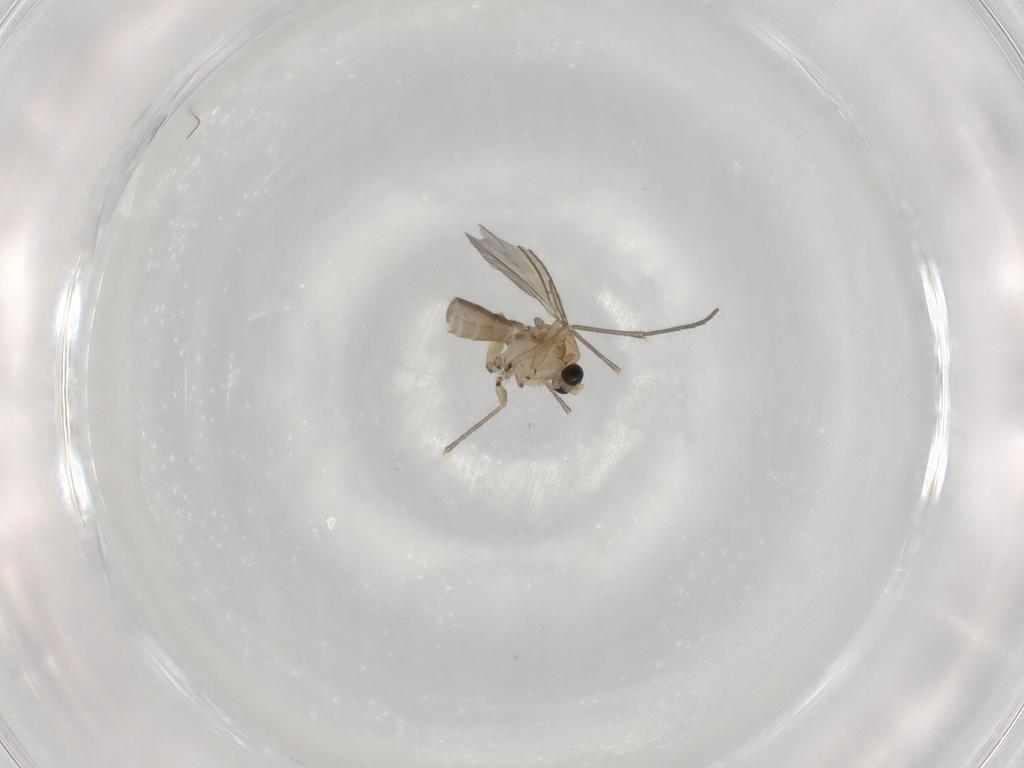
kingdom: Animalia
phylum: Arthropoda
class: Insecta
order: Diptera
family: Sciaridae
